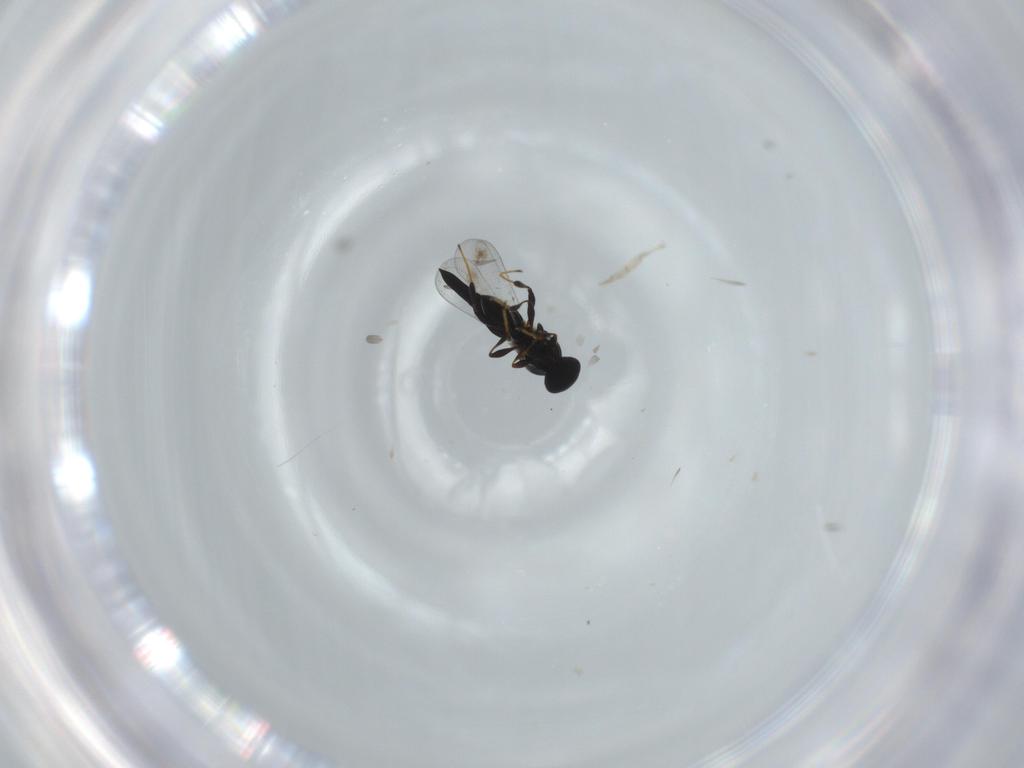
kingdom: Animalia
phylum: Arthropoda
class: Insecta
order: Hymenoptera
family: Platygastridae
